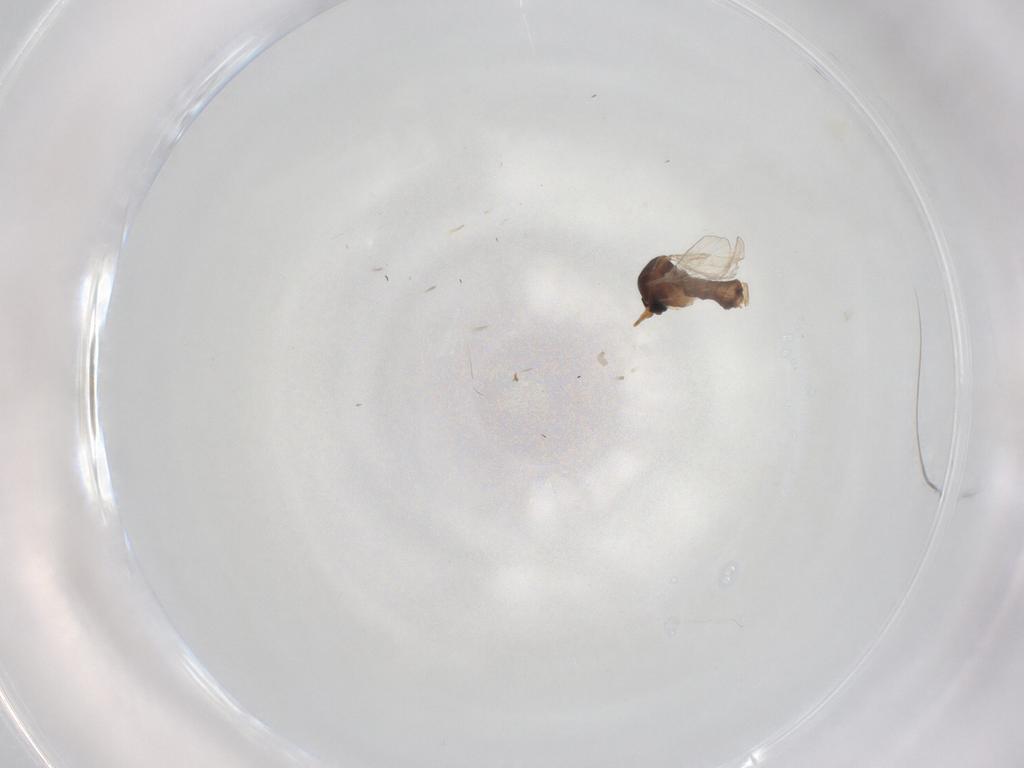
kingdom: Animalia
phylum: Arthropoda
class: Insecta
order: Diptera
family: Ceratopogonidae
